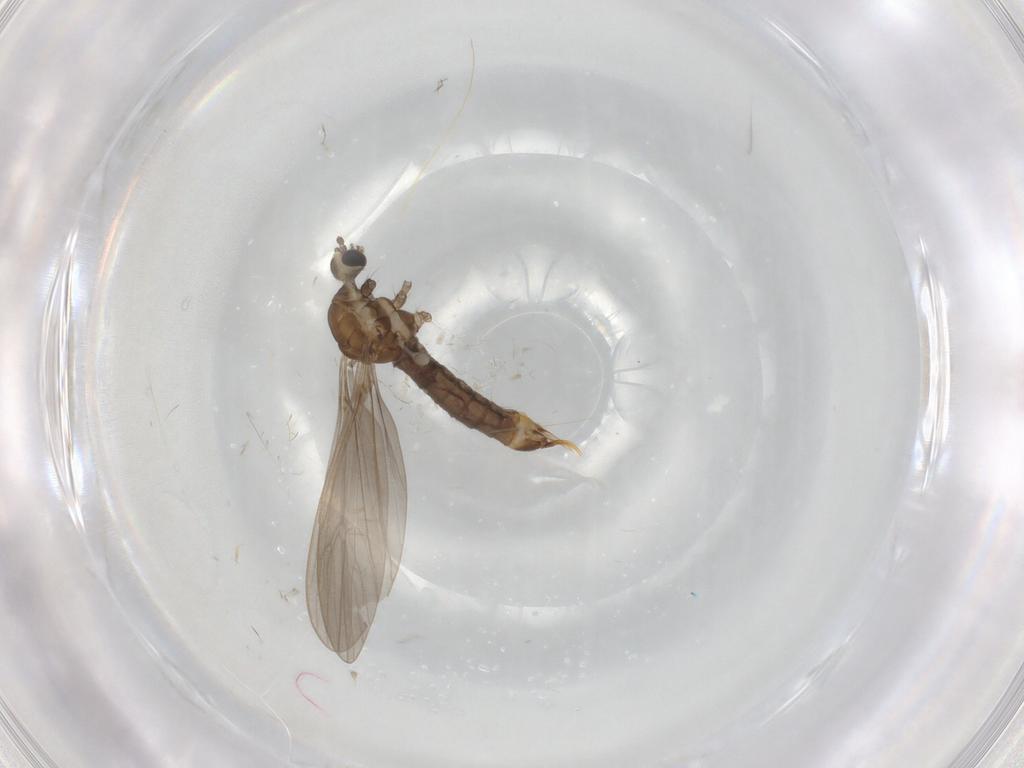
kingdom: Animalia
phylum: Arthropoda
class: Insecta
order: Diptera
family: Limoniidae
